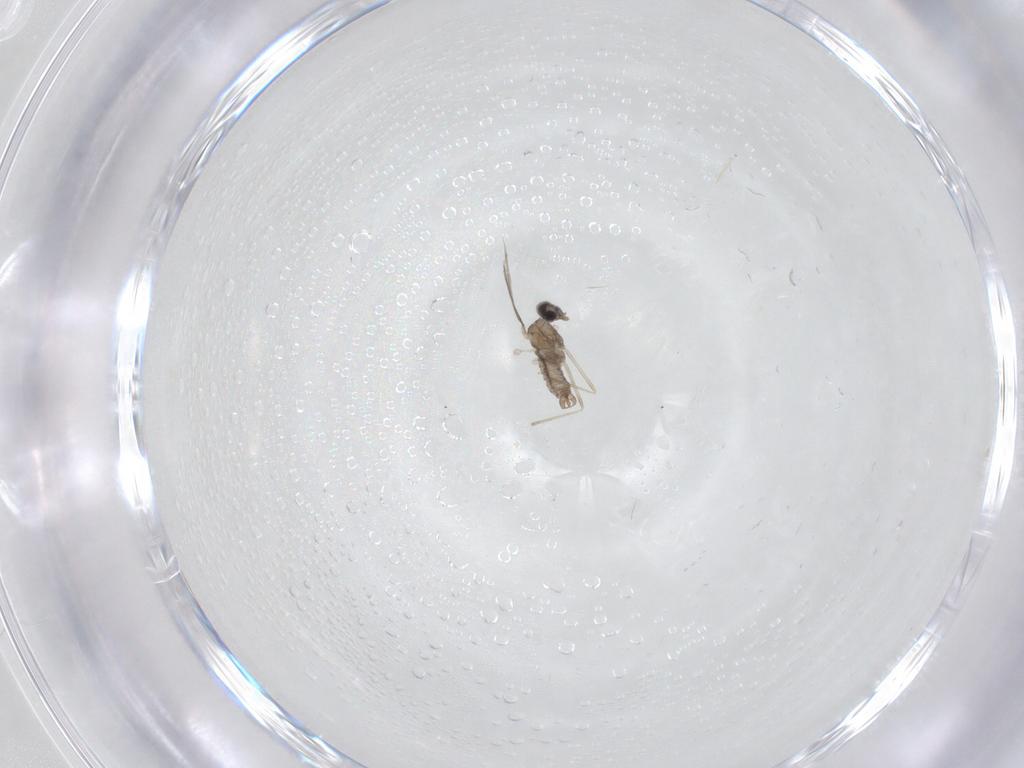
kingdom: Animalia
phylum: Arthropoda
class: Insecta
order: Diptera
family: Cecidomyiidae
